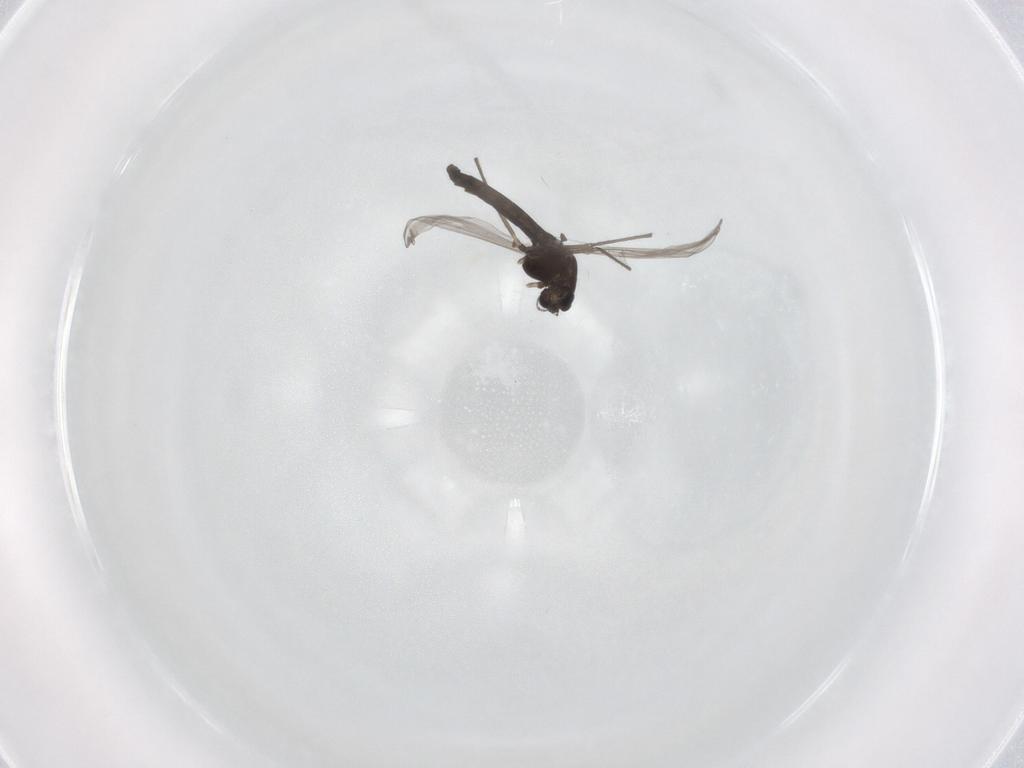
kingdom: Animalia
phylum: Arthropoda
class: Insecta
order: Diptera
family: Chironomidae
